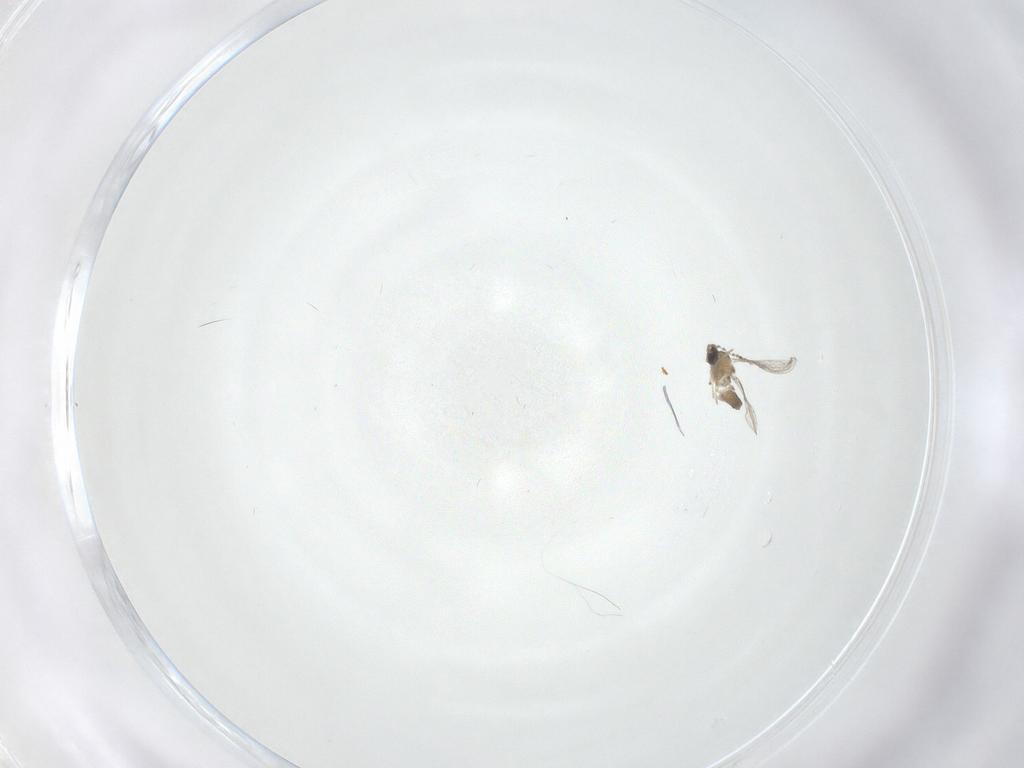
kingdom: Animalia
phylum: Arthropoda
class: Insecta
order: Diptera
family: Cecidomyiidae
